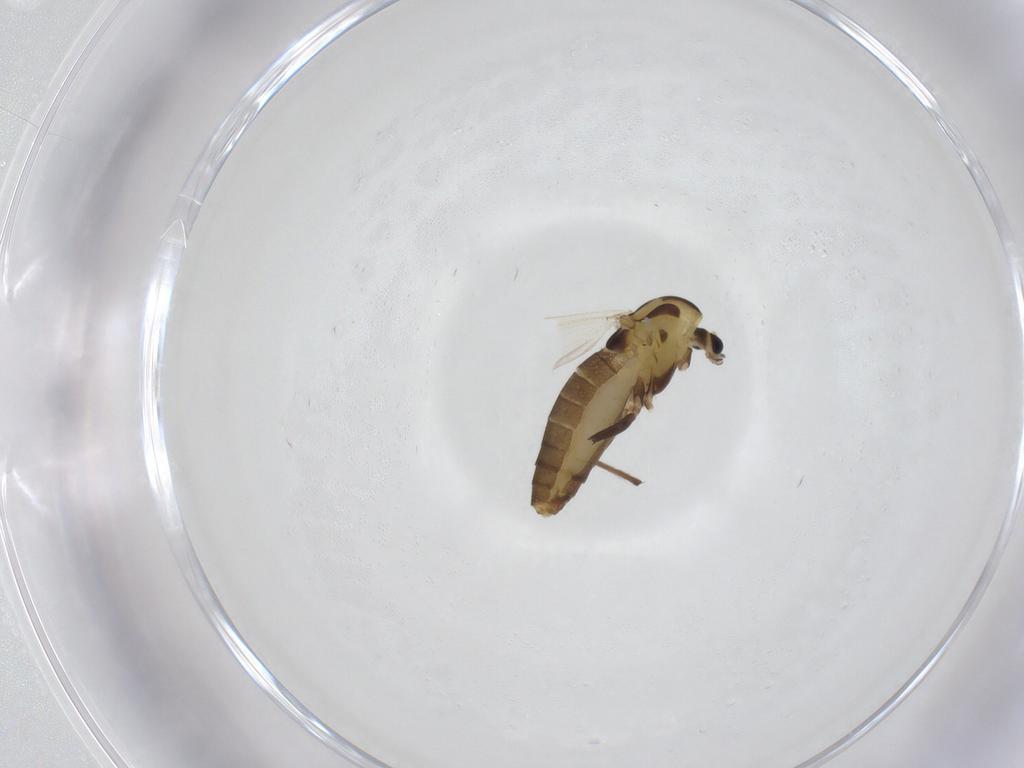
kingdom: Animalia
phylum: Arthropoda
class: Insecta
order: Diptera
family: Chironomidae
